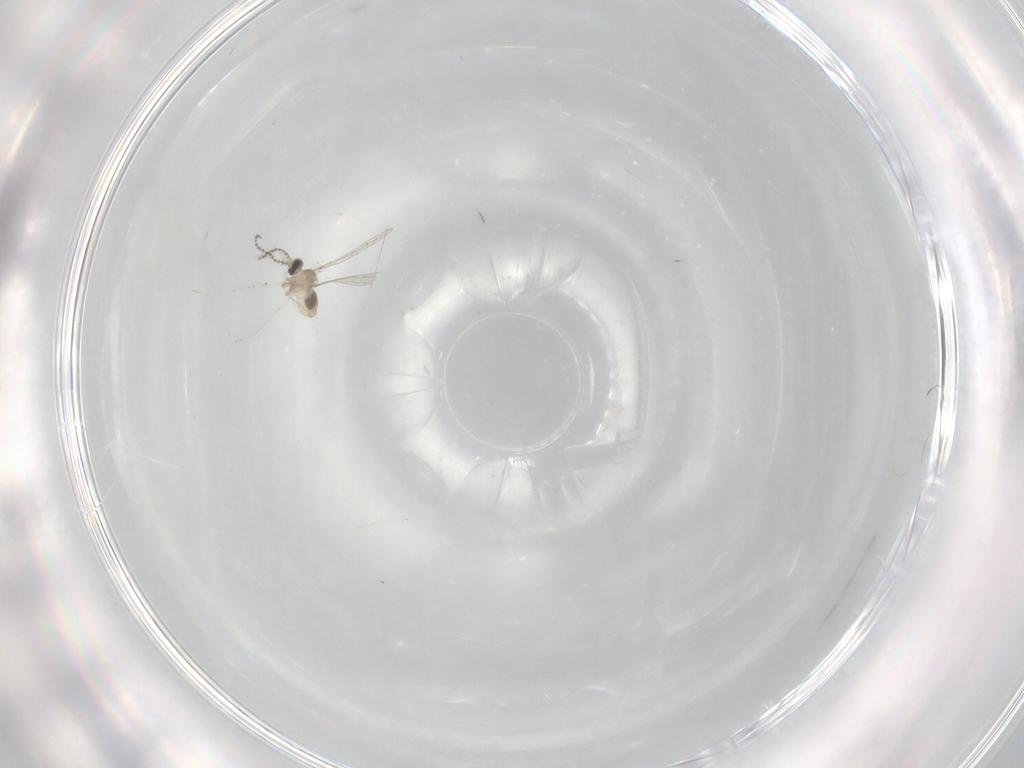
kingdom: Animalia
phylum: Arthropoda
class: Insecta
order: Diptera
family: Cecidomyiidae
